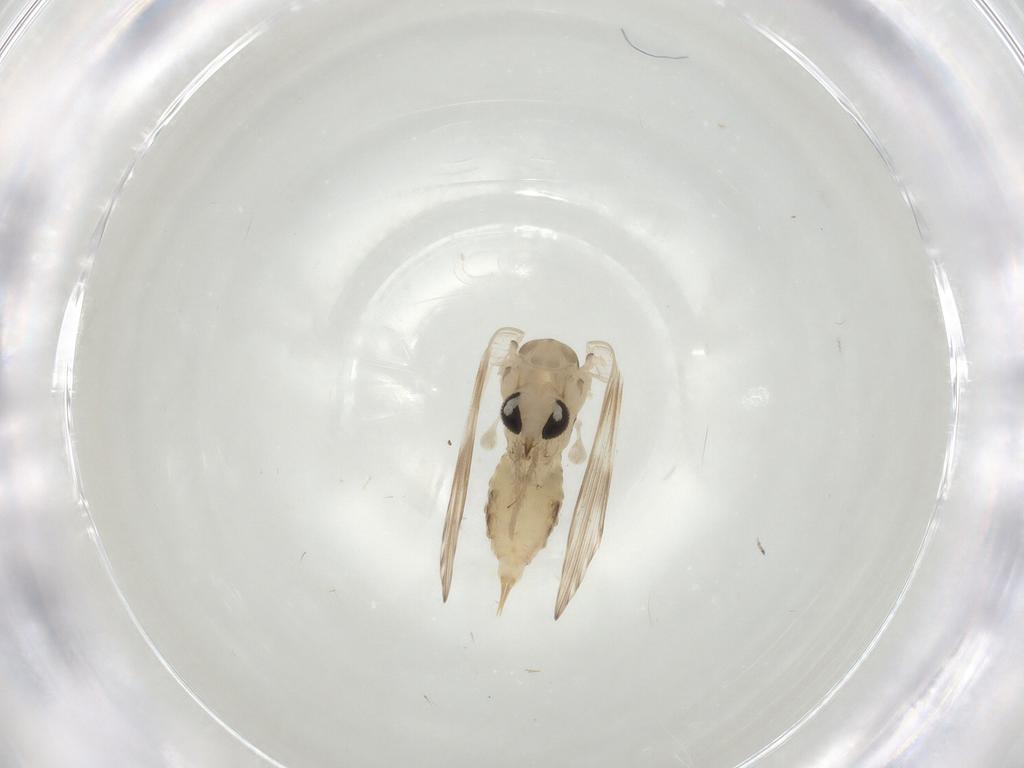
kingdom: Animalia
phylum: Arthropoda
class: Insecta
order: Diptera
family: Psychodidae
